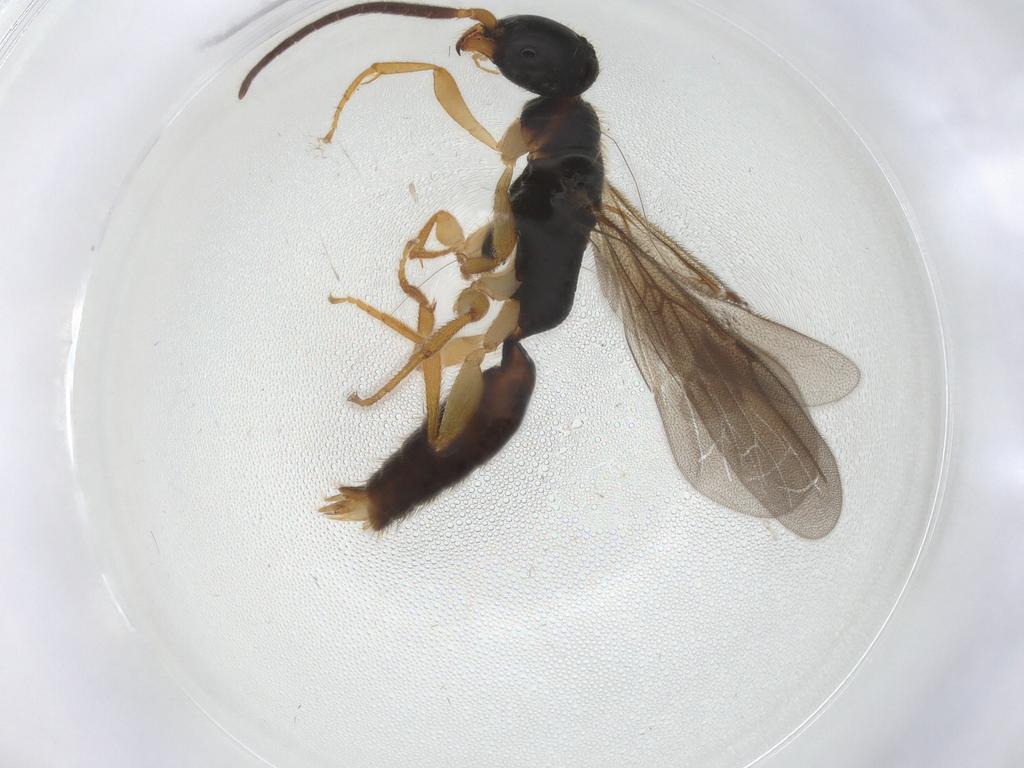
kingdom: Animalia
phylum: Arthropoda
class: Insecta
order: Hymenoptera
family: Bethylidae
